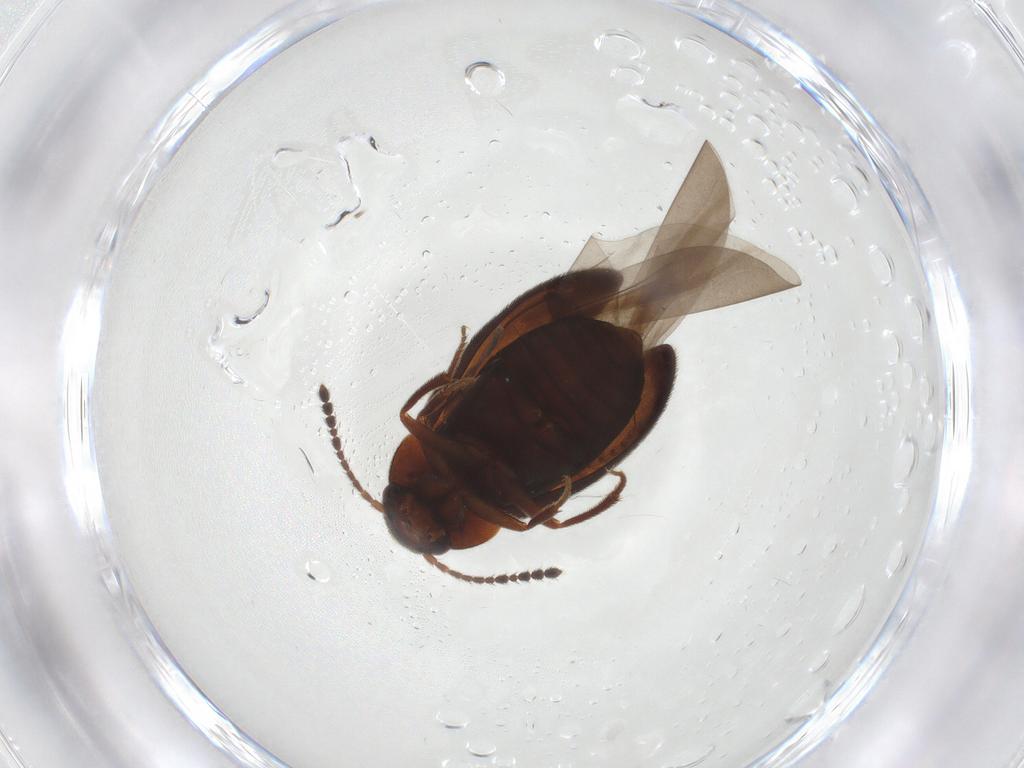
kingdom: Animalia
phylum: Arthropoda
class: Insecta
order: Coleoptera
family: Leiodidae
